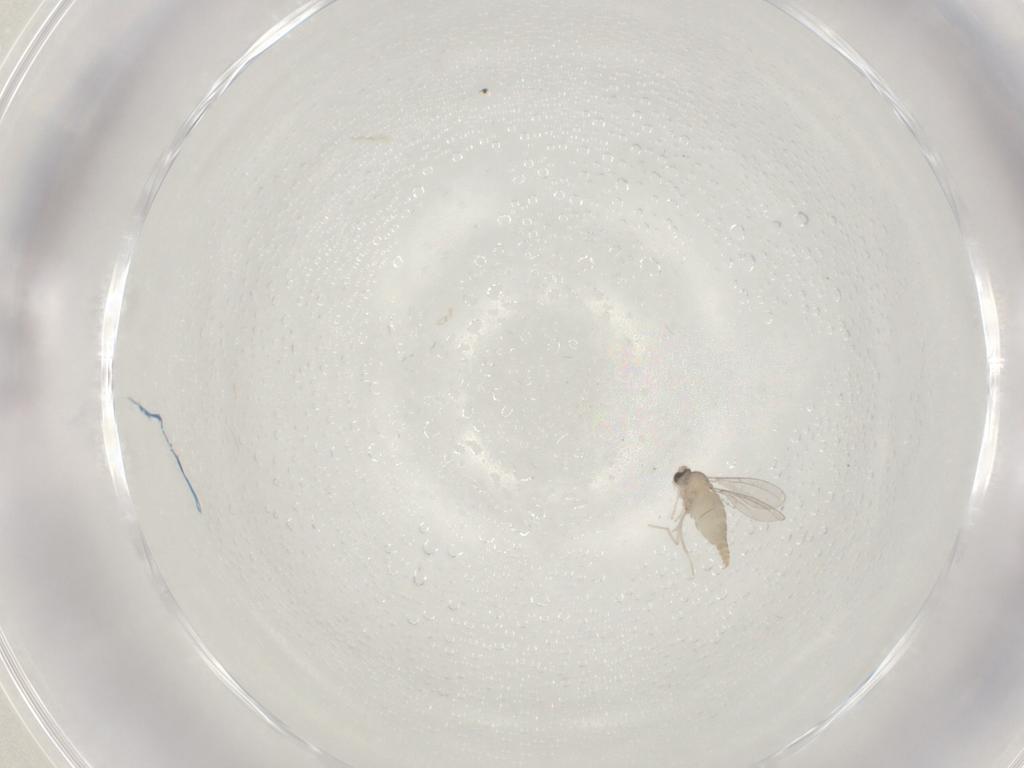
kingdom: Animalia
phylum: Arthropoda
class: Insecta
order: Diptera
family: Cecidomyiidae
